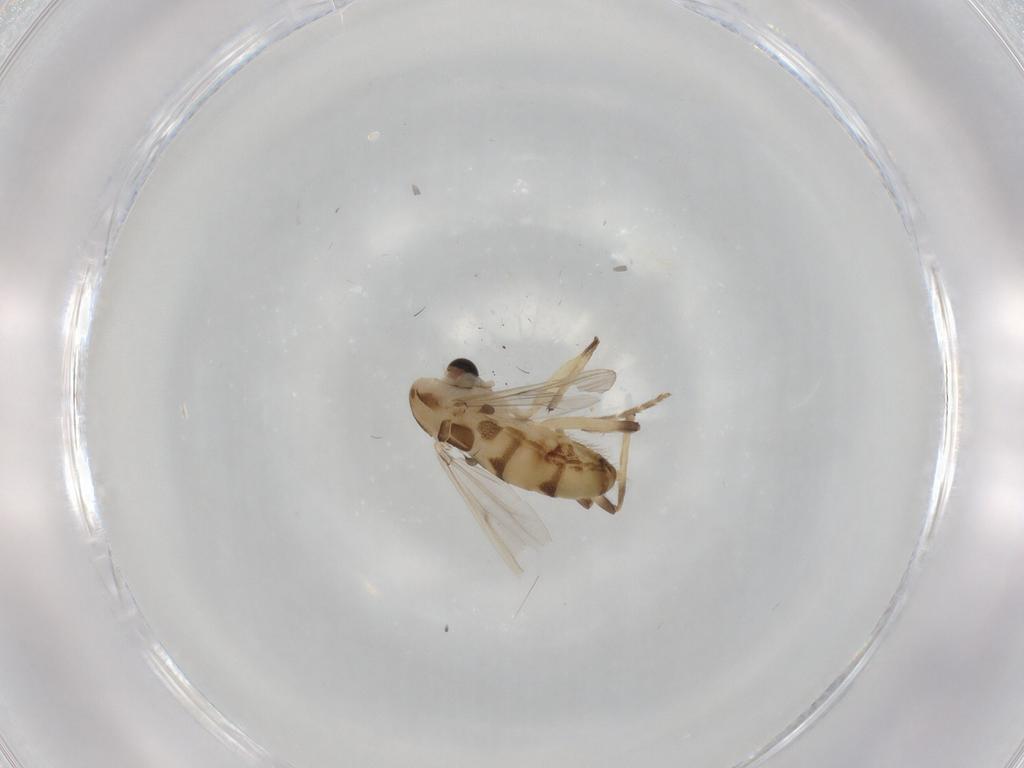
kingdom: Animalia
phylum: Arthropoda
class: Insecta
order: Diptera
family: Chironomidae
